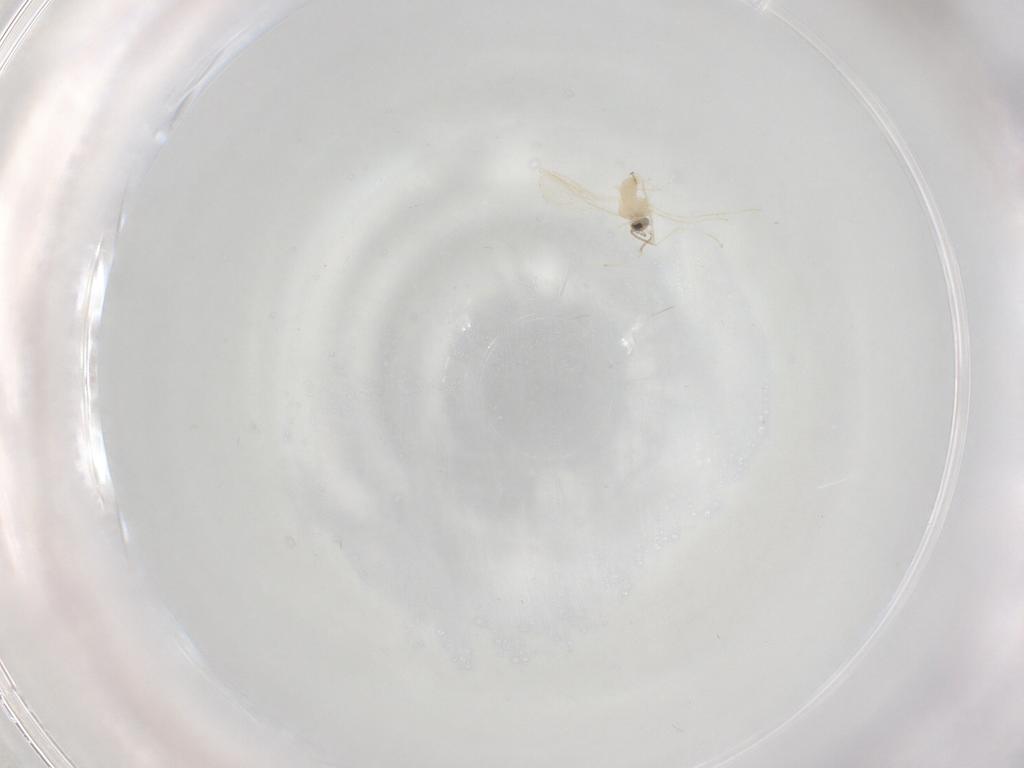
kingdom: Animalia
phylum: Arthropoda
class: Insecta
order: Diptera
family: Cecidomyiidae
